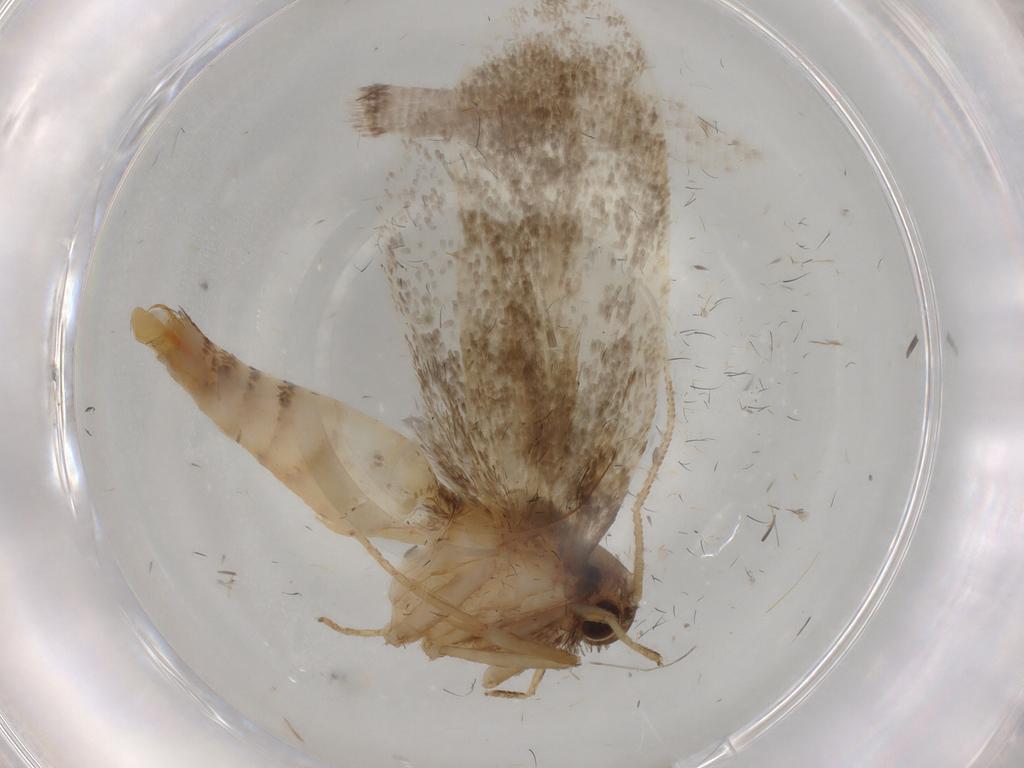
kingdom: Animalia
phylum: Arthropoda
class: Insecta
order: Lepidoptera
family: Tineidae
